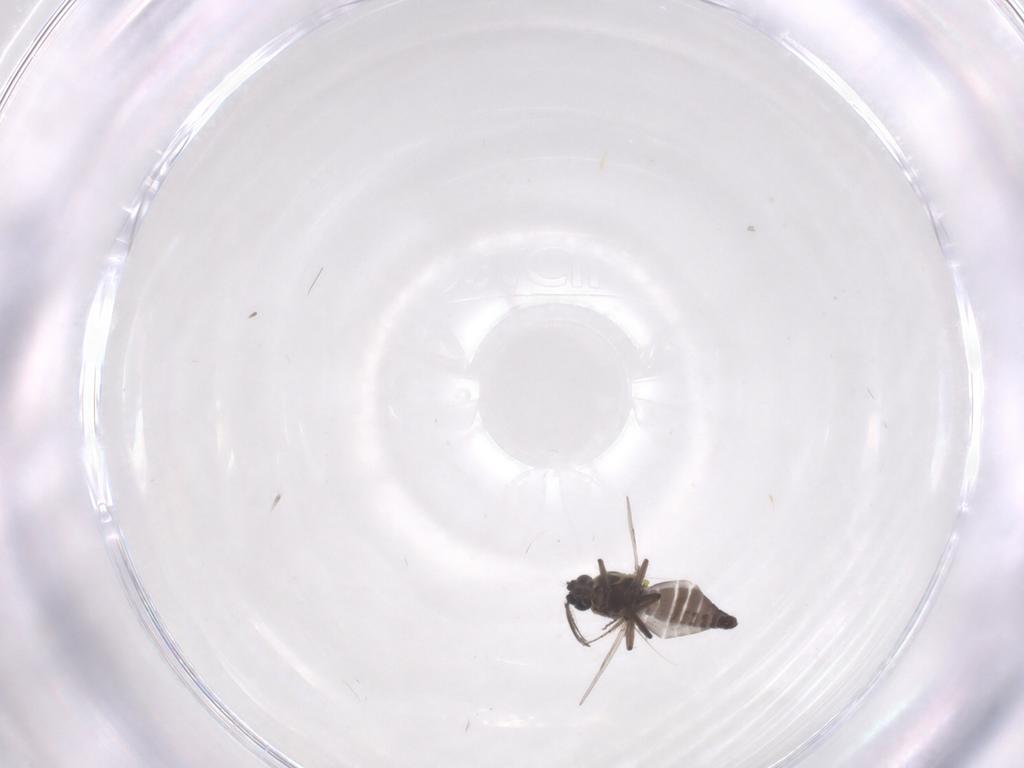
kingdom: Animalia
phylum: Arthropoda
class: Insecta
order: Diptera
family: Ceratopogonidae
